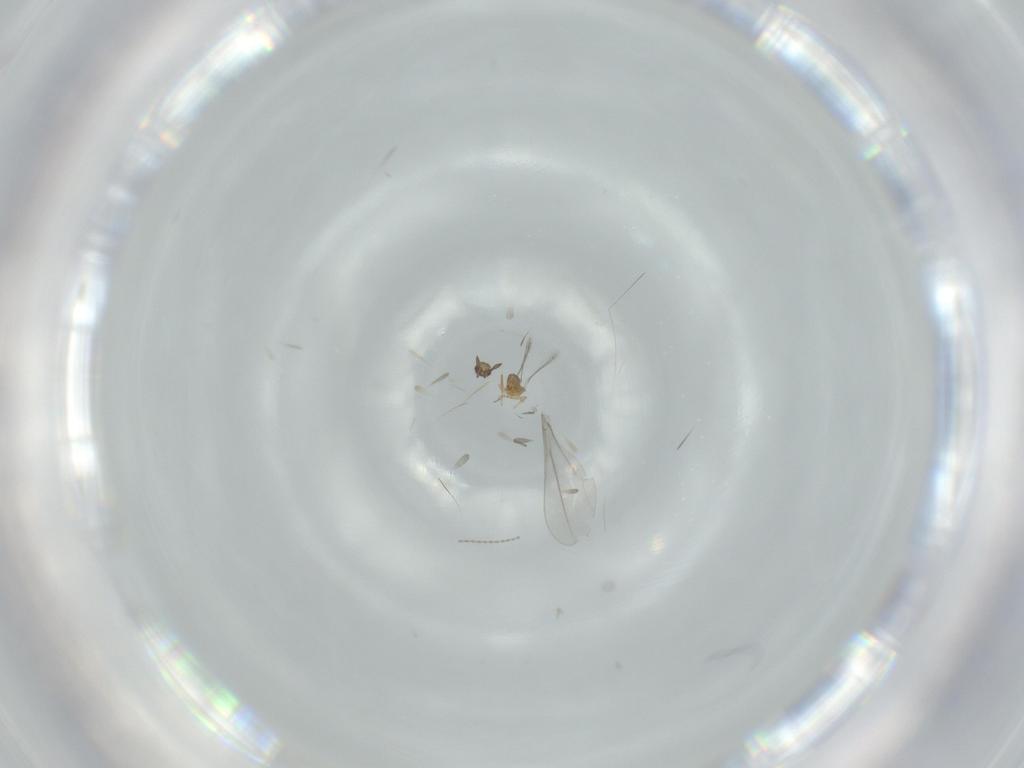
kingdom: Animalia
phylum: Arthropoda
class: Insecta
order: Hymenoptera
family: Mymaridae
